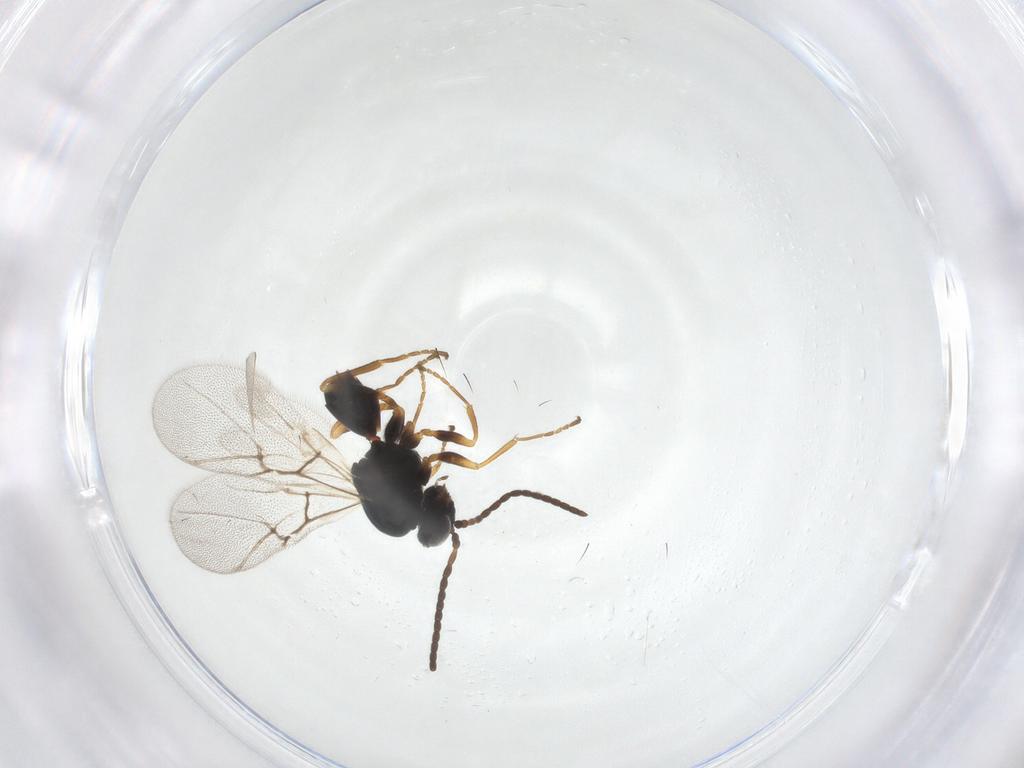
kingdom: Animalia
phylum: Arthropoda
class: Insecta
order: Hymenoptera
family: Cynipidae
